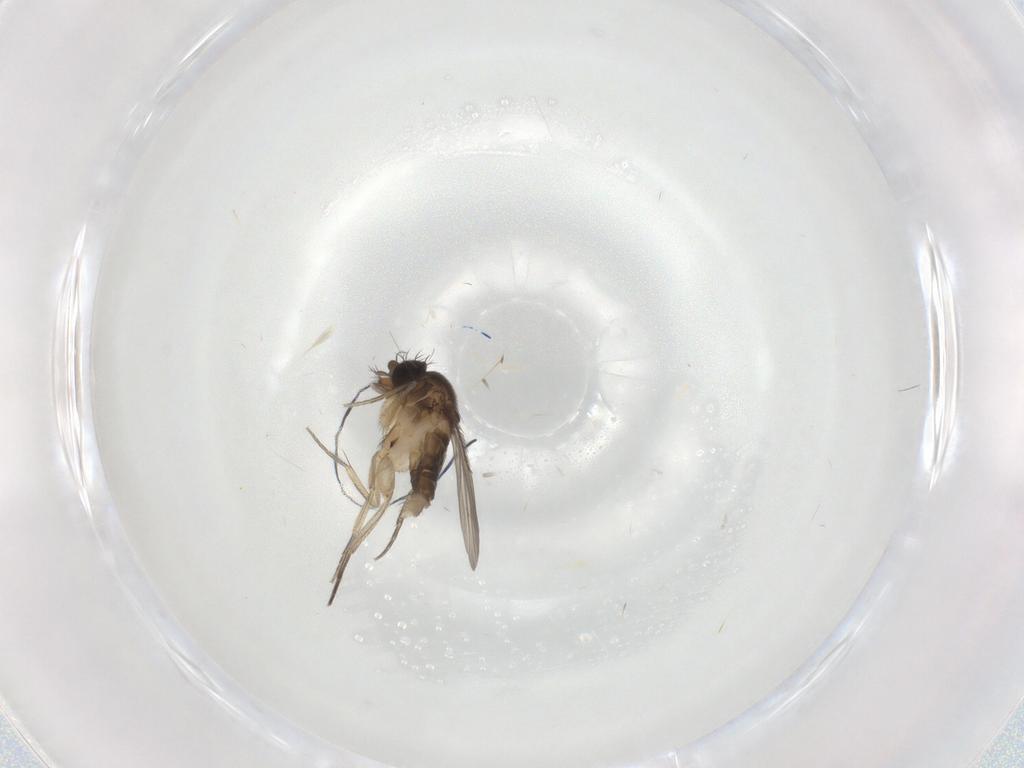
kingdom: Animalia
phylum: Arthropoda
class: Insecta
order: Diptera
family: Phoridae
